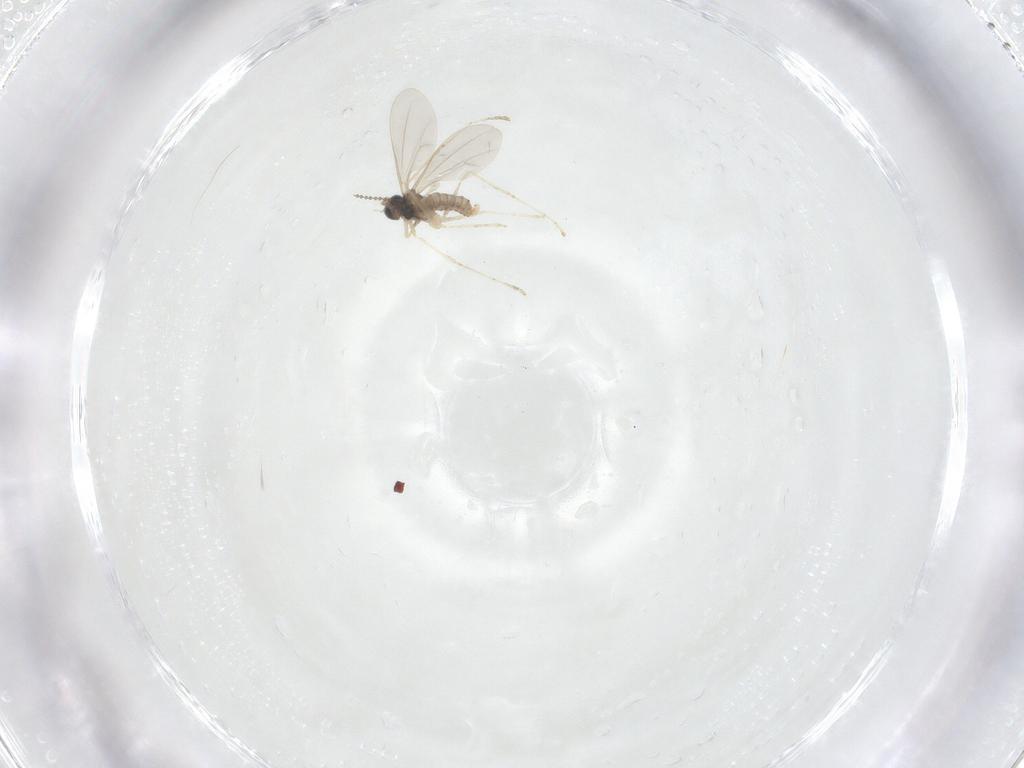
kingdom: Animalia
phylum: Arthropoda
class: Insecta
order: Diptera
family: Cecidomyiidae
